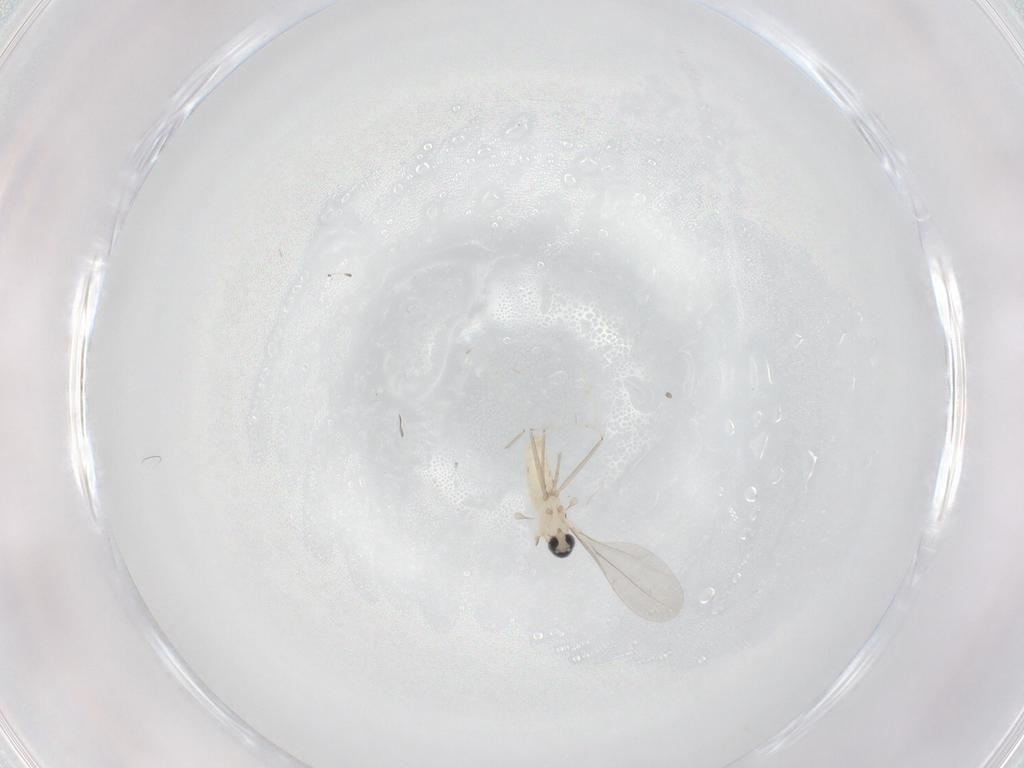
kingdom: Animalia
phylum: Arthropoda
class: Insecta
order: Diptera
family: Cecidomyiidae
